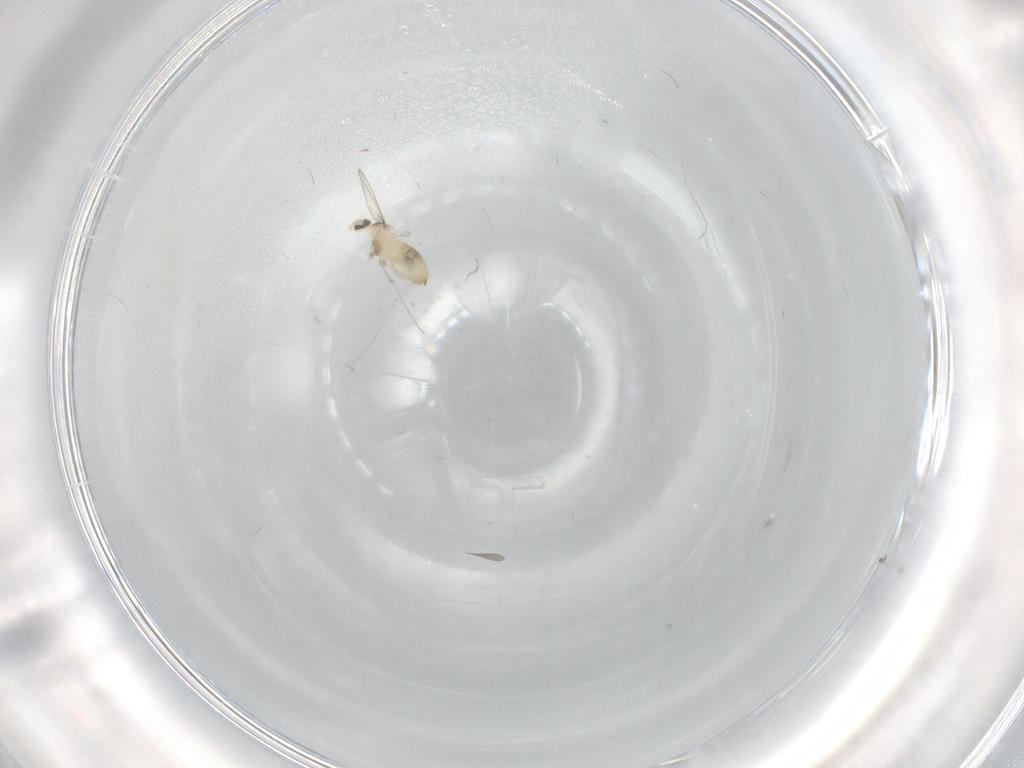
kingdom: Animalia
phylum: Arthropoda
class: Insecta
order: Diptera
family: Cecidomyiidae
